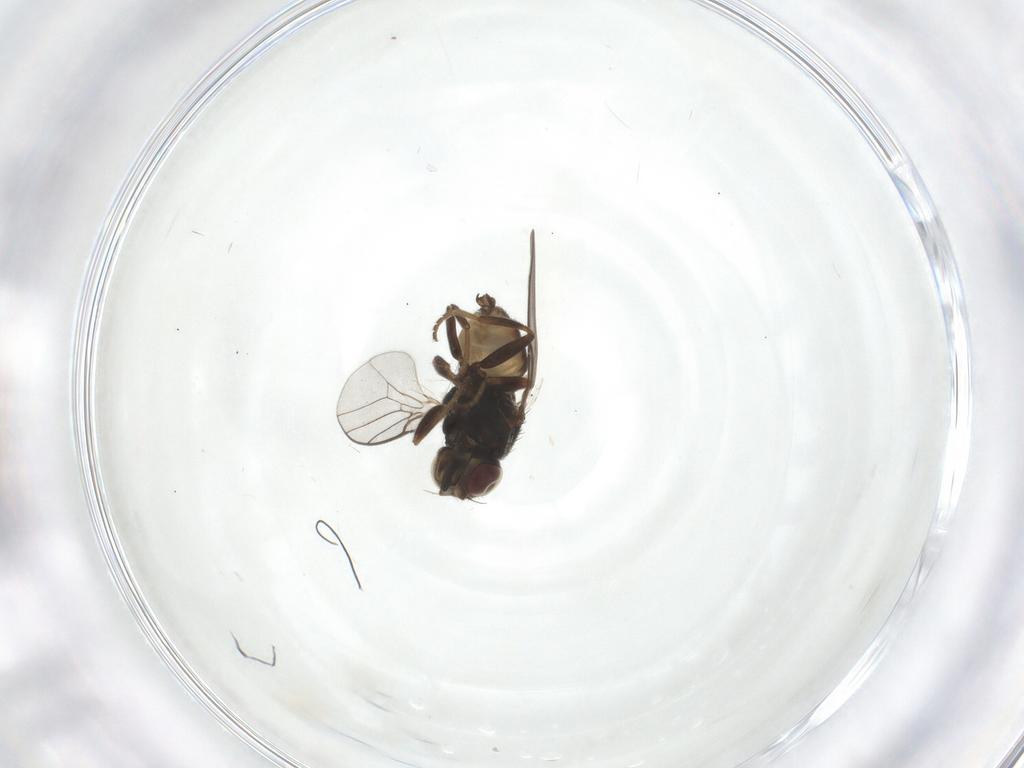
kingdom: Animalia
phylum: Arthropoda
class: Insecta
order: Diptera
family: Chloropidae
